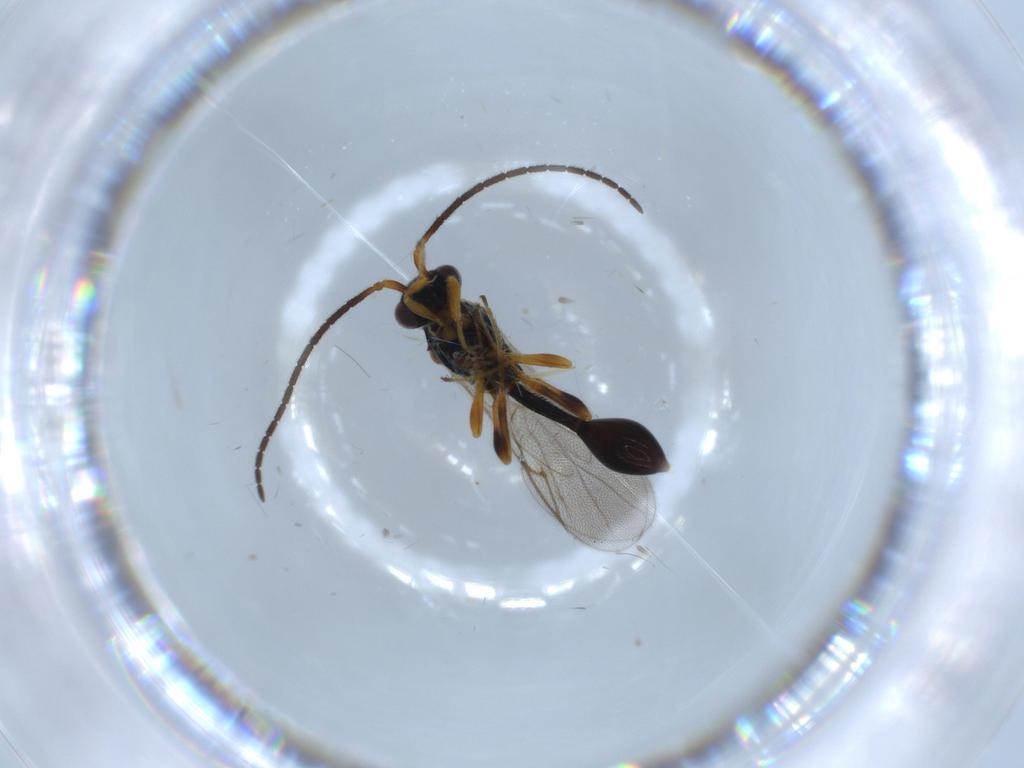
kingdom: Animalia
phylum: Arthropoda
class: Insecta
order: Hymenoptera
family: Diapriidae
